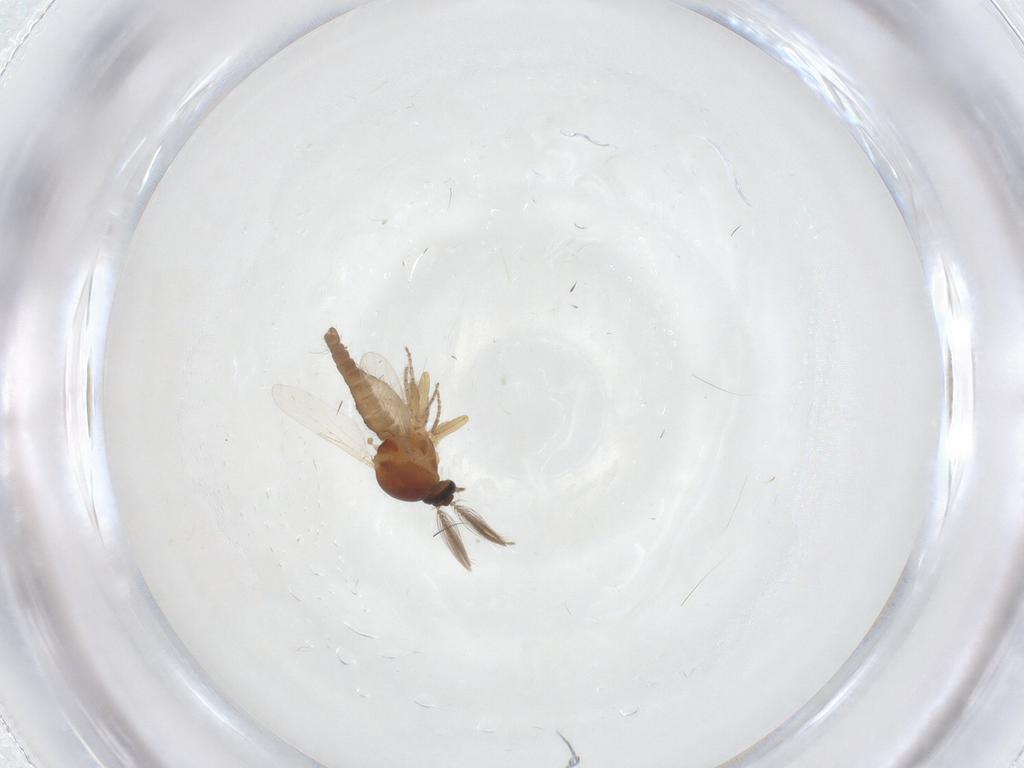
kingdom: Animalia
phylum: Arthropoda
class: Insecta
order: Diptera
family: Ceratopogonidae
